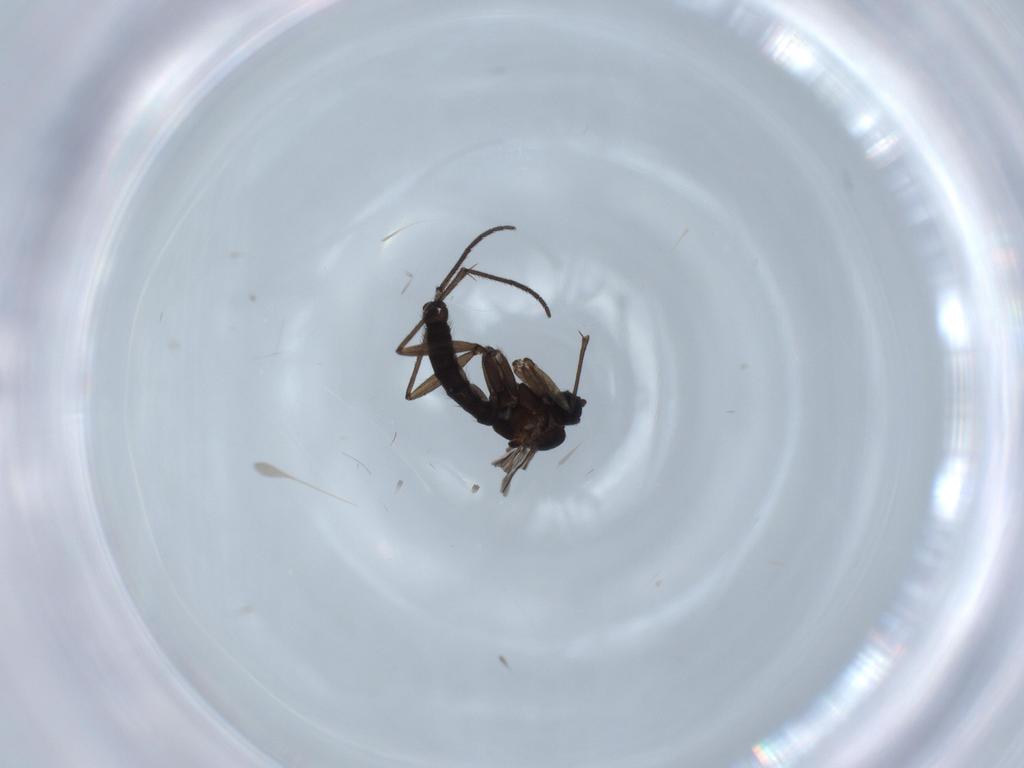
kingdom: Animalia
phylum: Arthropoda
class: Insecta
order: Diptera
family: Sciaridae
